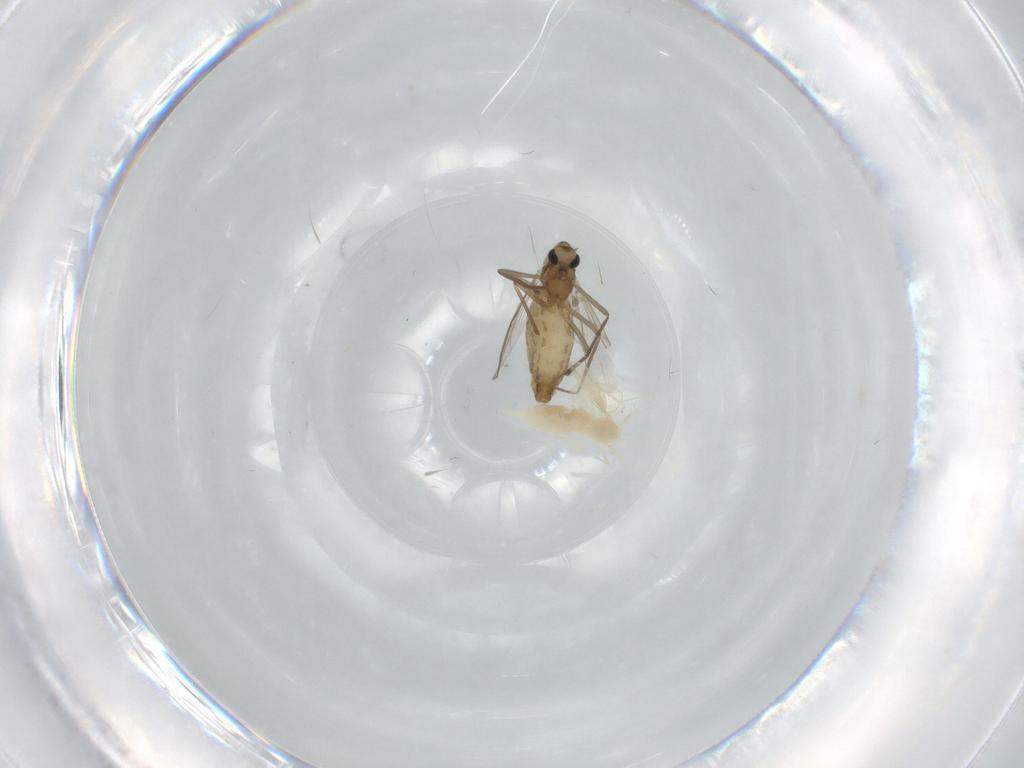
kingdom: Animalia
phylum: Arthropoda
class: Insecta
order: Diptera
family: Chironomidae
